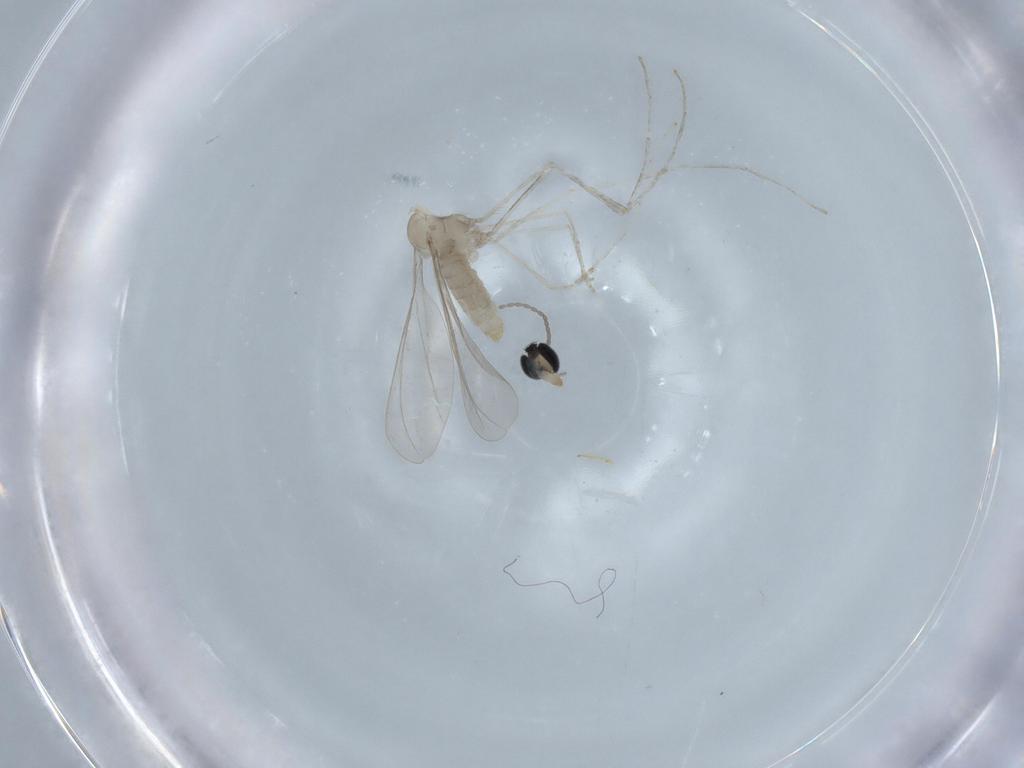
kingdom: Animalia
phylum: Arthropoda
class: Insecta
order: Diptera
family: Cecidomyiidae
